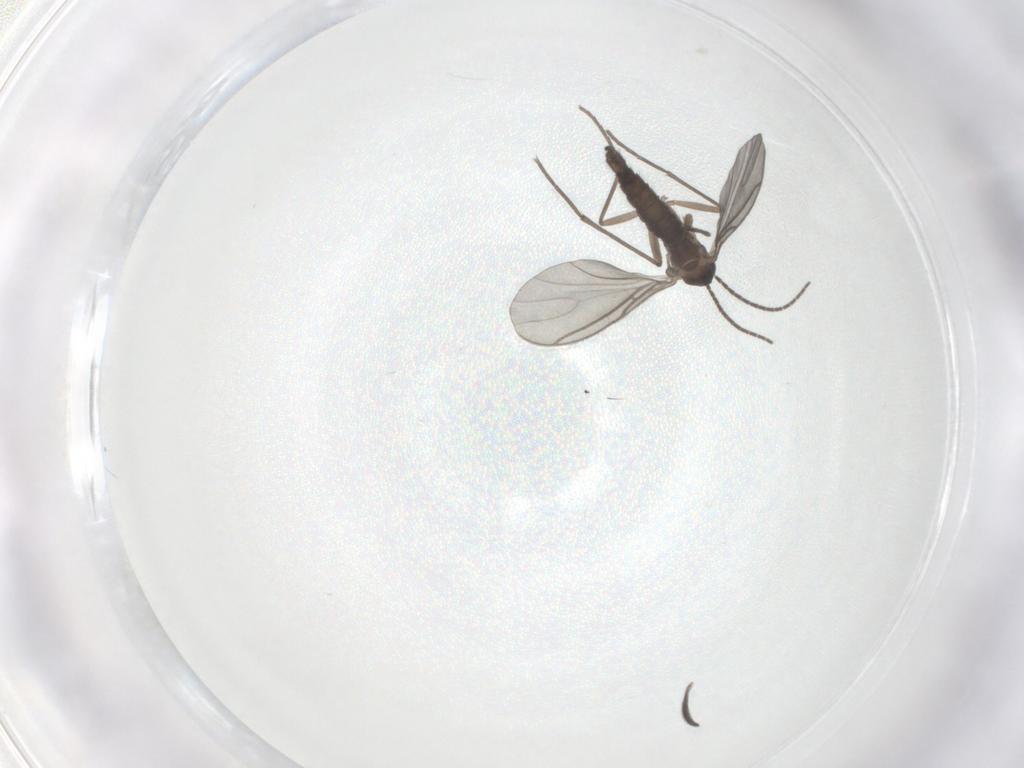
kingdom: Animalia
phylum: Arthropoda
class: Insecta
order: Diptera
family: Sciaridae
